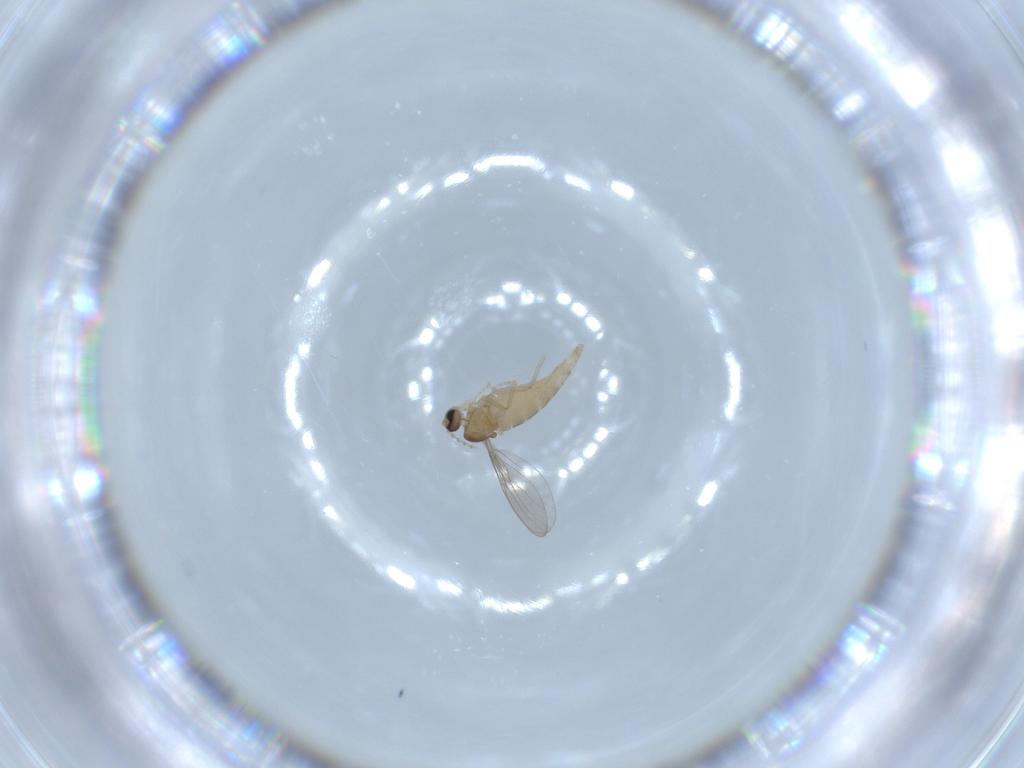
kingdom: Animalia
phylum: Arthropoda
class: Insecta
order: Diptera
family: Cecidomyiidae
